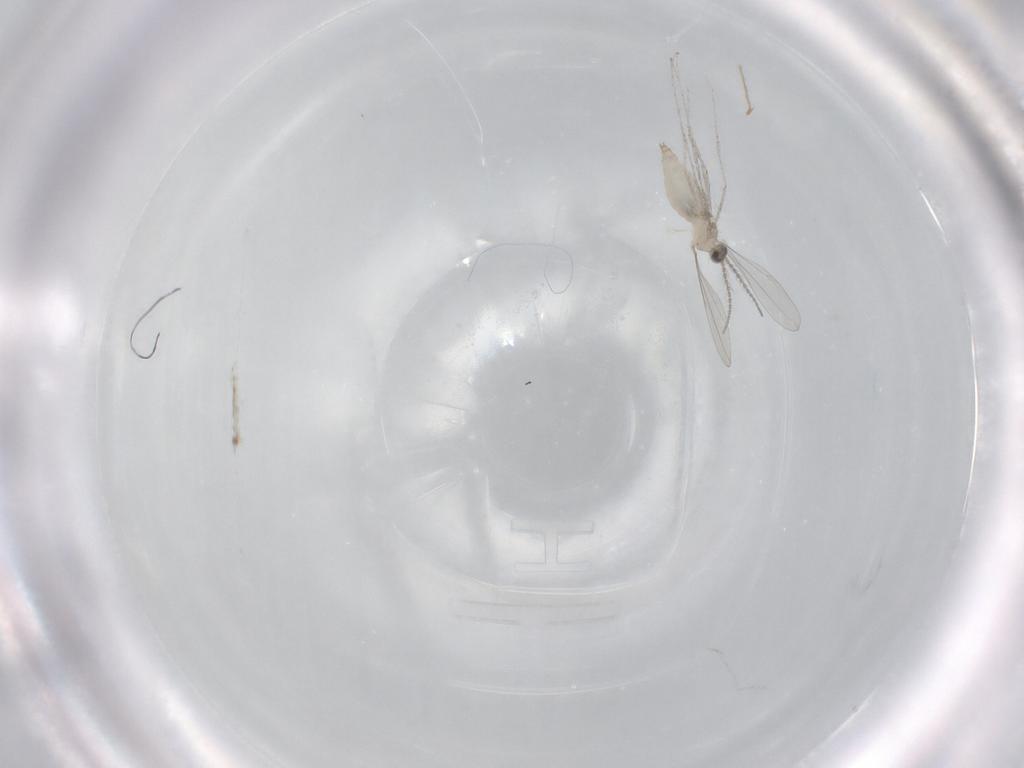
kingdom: Animalia
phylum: Arthropoda
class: Insecta
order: Diptera
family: Cecidomyiidae
